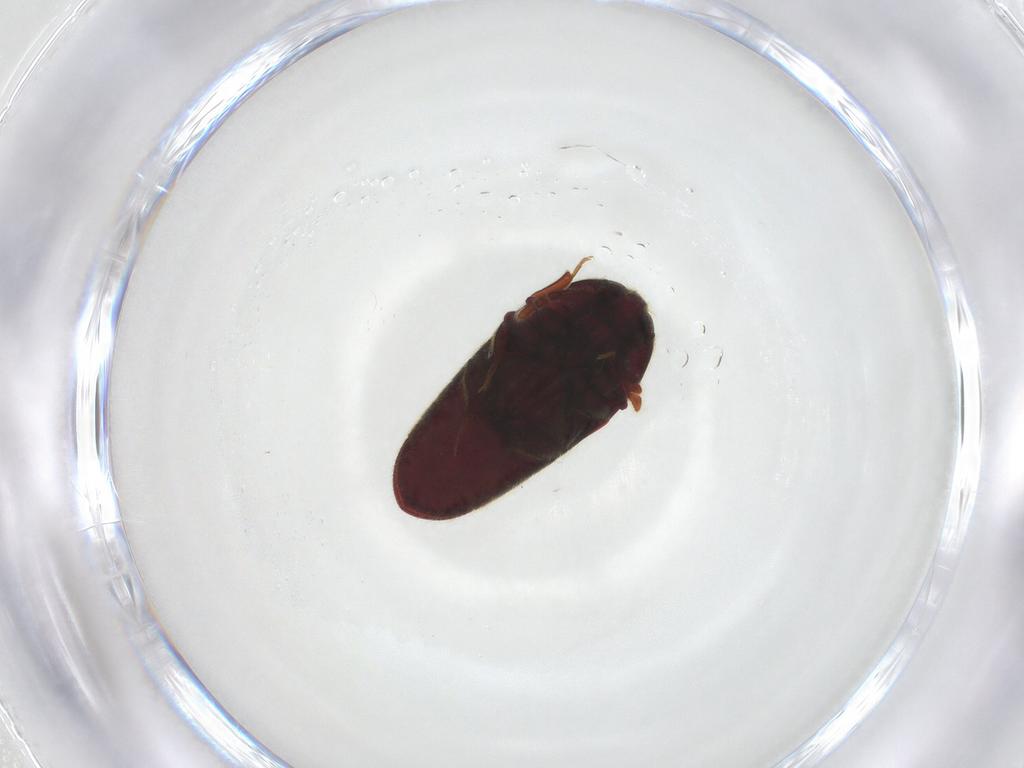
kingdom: Animalia
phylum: Arthropoda
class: Insecta
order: Coleoptera
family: Throscidae
